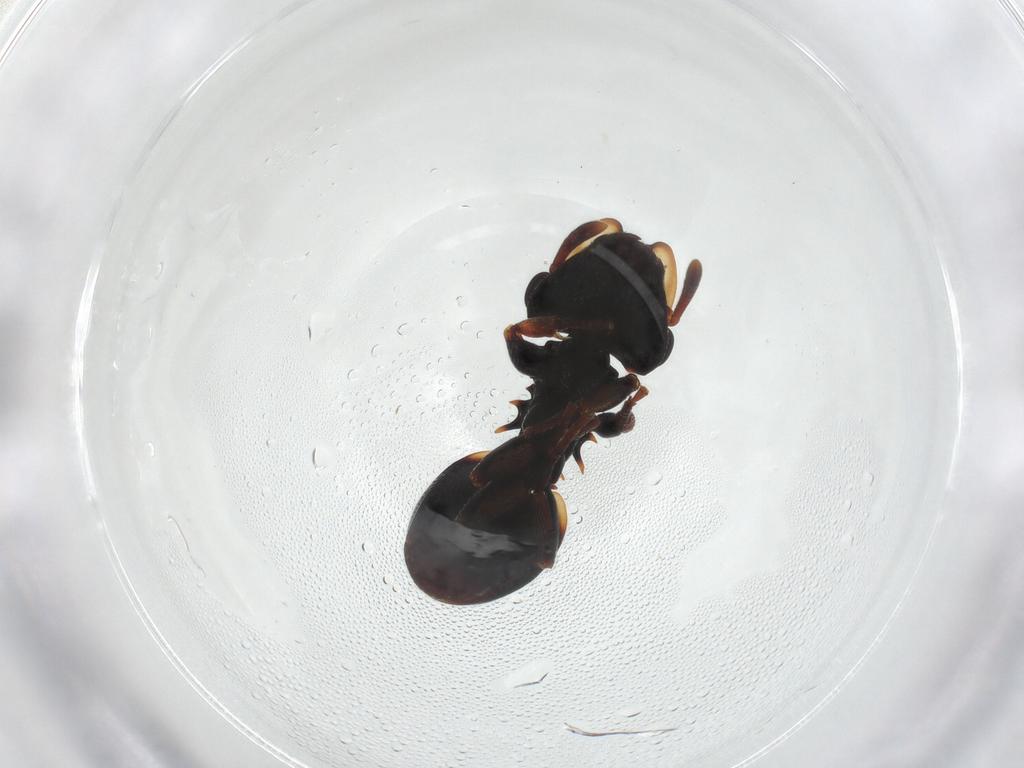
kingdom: Animalia
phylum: Arthropoda
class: Insecta
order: Hymenoptera
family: Formicidae
